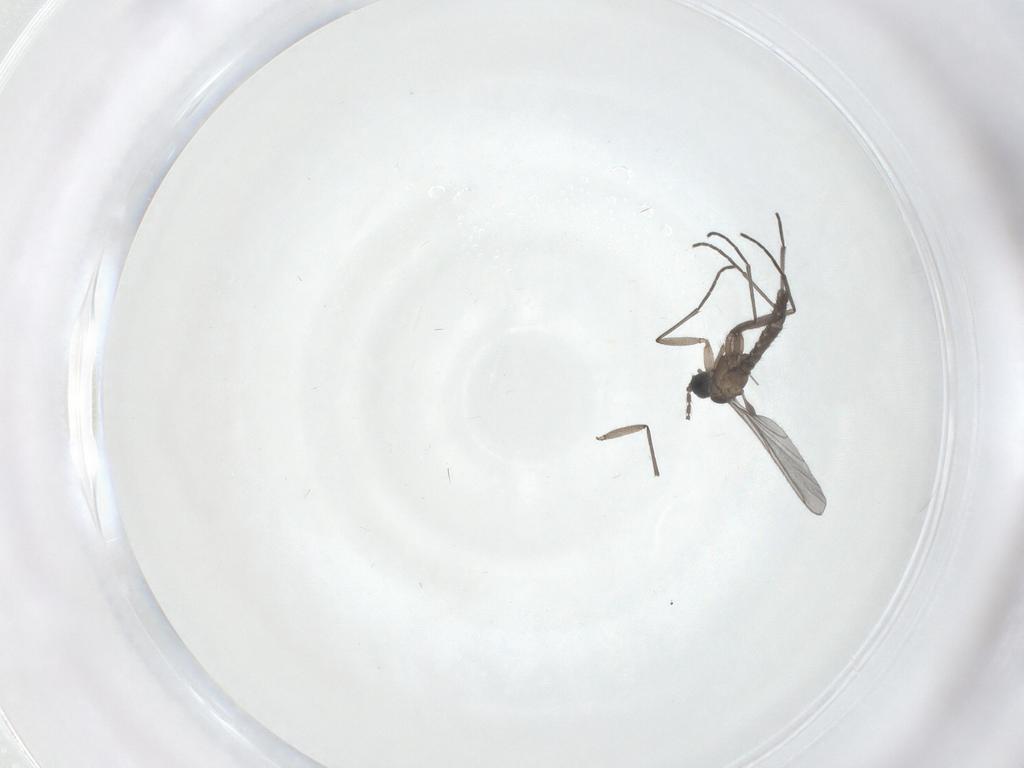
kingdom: Animalia
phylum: Arthropoda
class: Insecta
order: Diptera
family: Sciaridae
